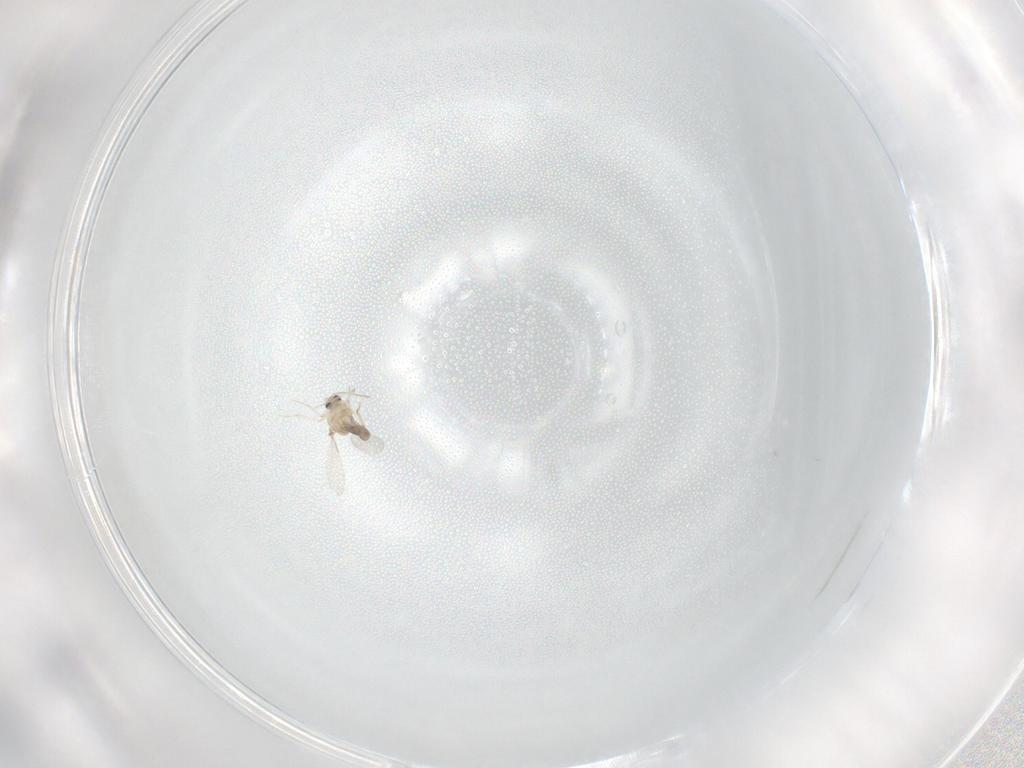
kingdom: Animalia
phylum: Arthropoda
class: Insecta
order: Diptera
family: Ceratopogonidae
